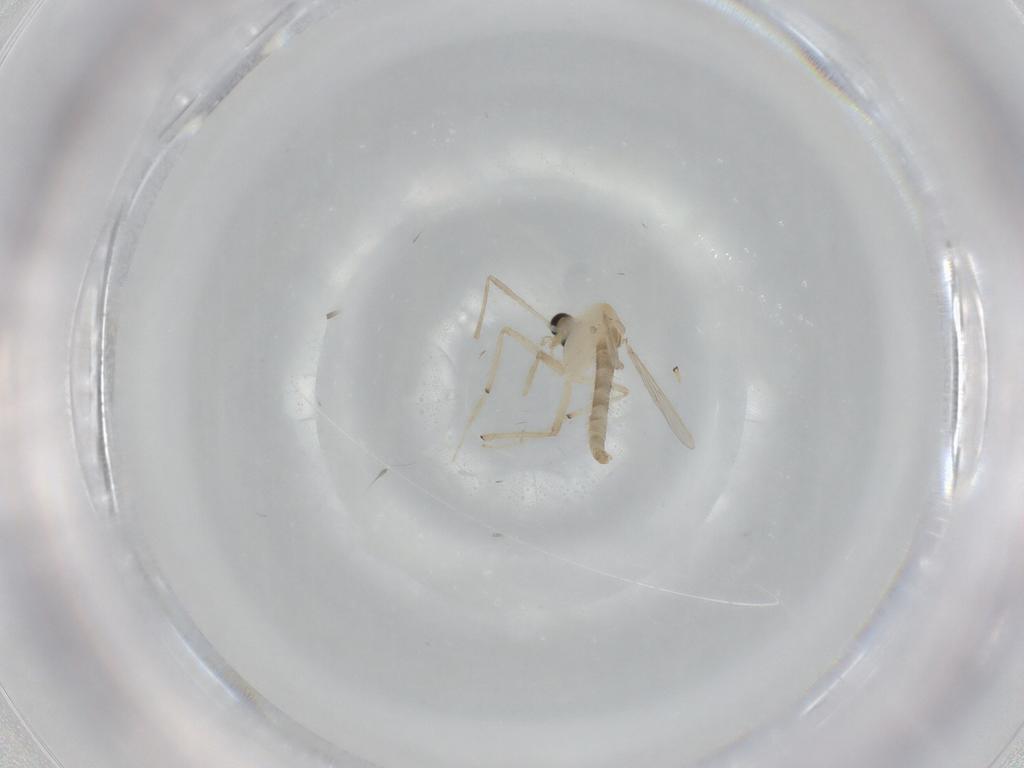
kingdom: Animalia
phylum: Arthropoda
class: Insecta
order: Diptera
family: Chironomidae
